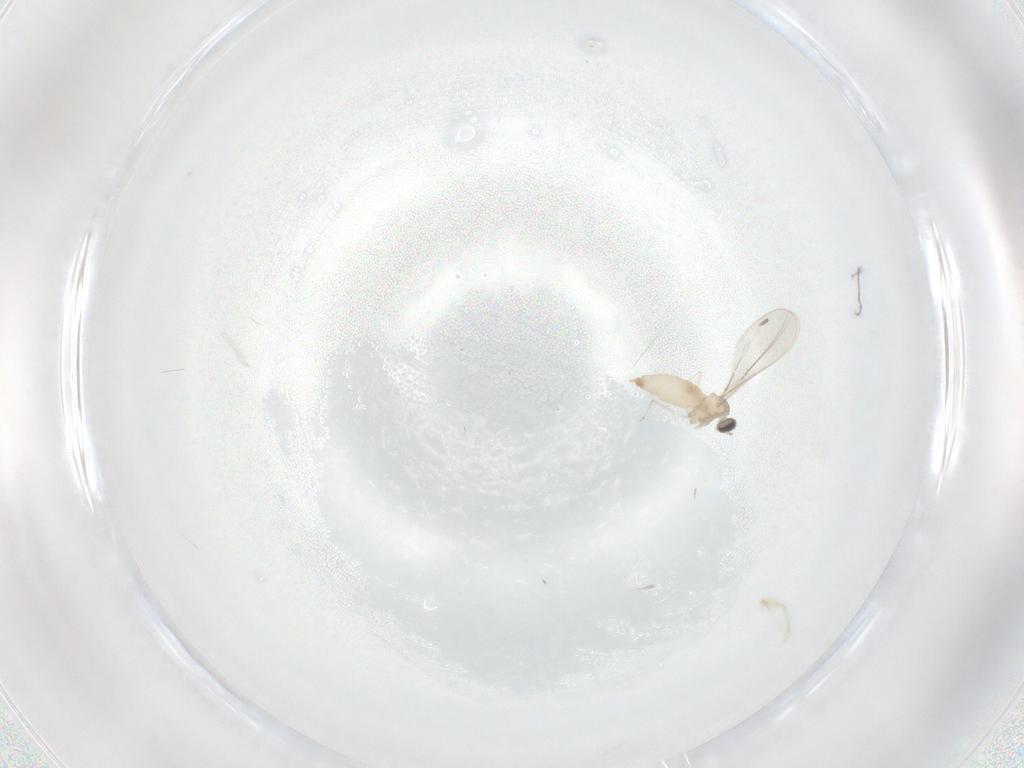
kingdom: Animalia
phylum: Arthropoda
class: Insecta
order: Diptera
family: Cecidomyiidae
